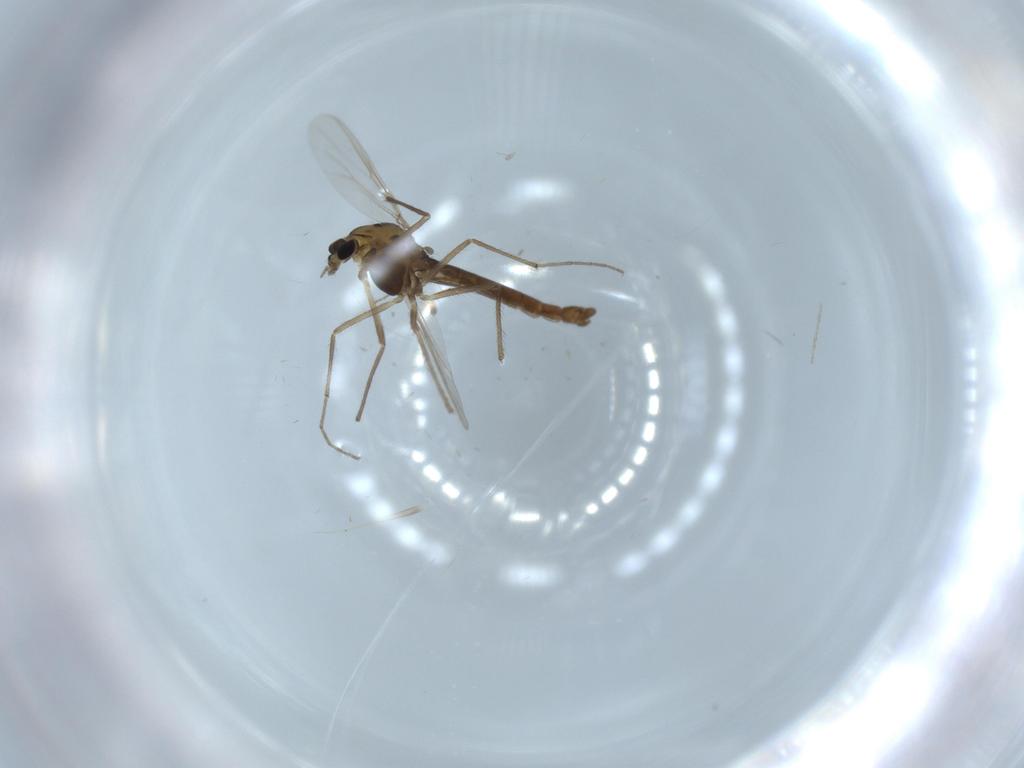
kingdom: Animalia
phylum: Arthropoda
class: Insecta
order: Diptera
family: Chironomidae
